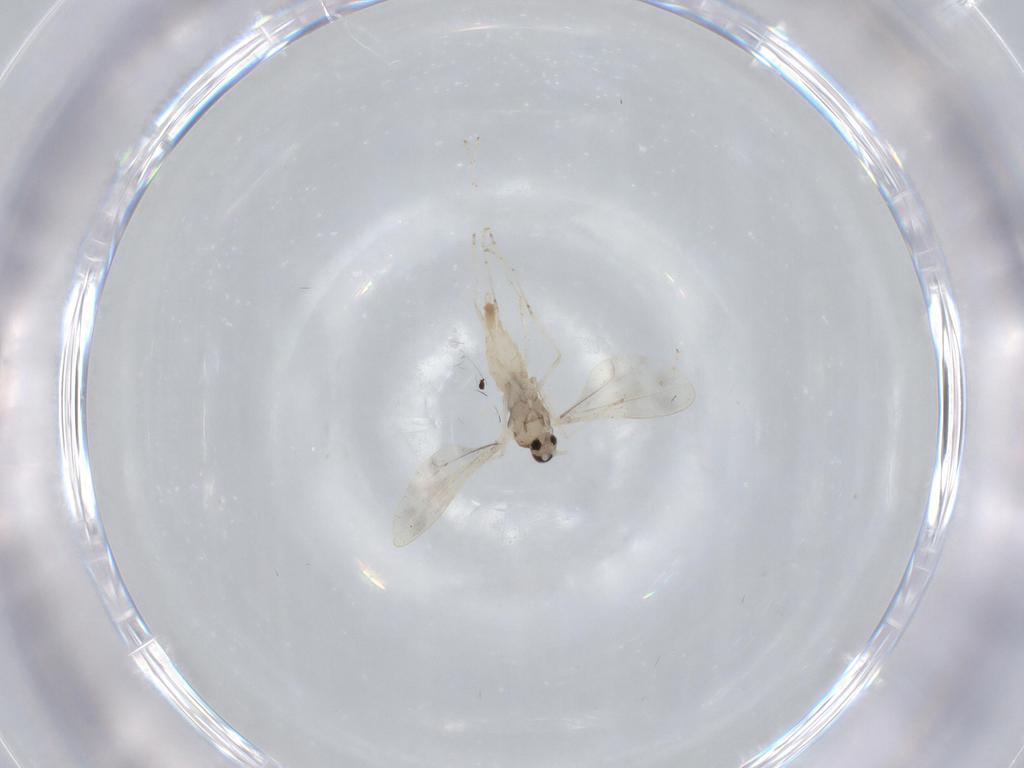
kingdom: Animalia
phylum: Arthropoda
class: Insecta
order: Diptera
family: Cecidomyiidae
